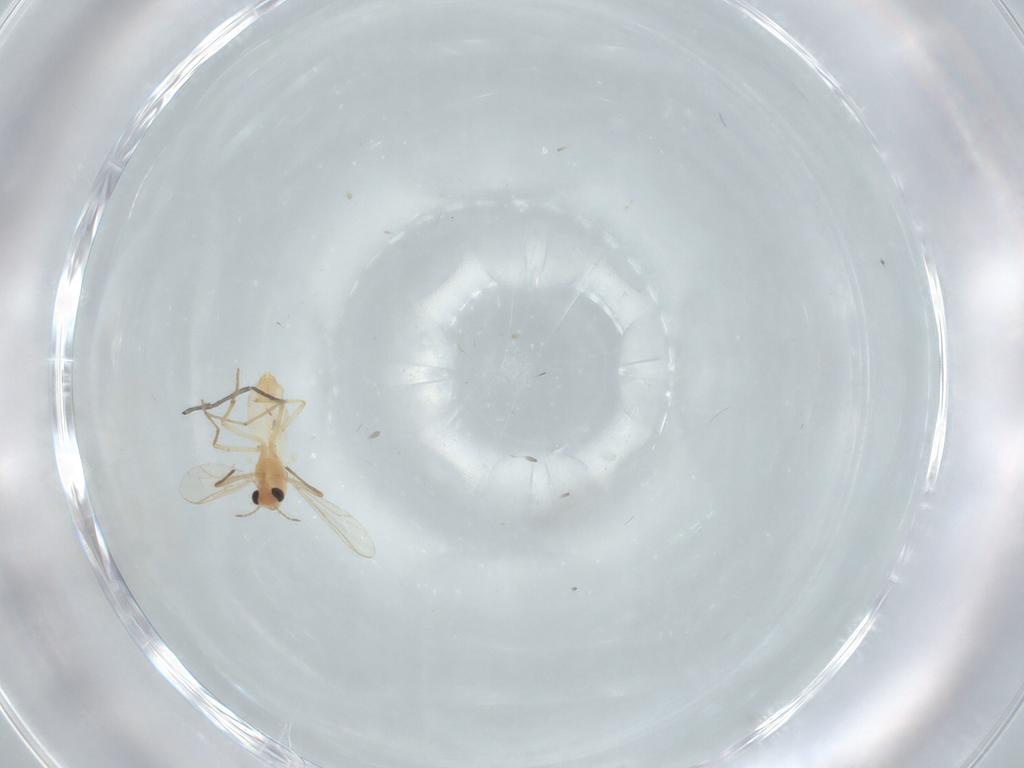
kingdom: Animalia
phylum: Arthropoda
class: Insecta
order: Diptera
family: Sciaridae
